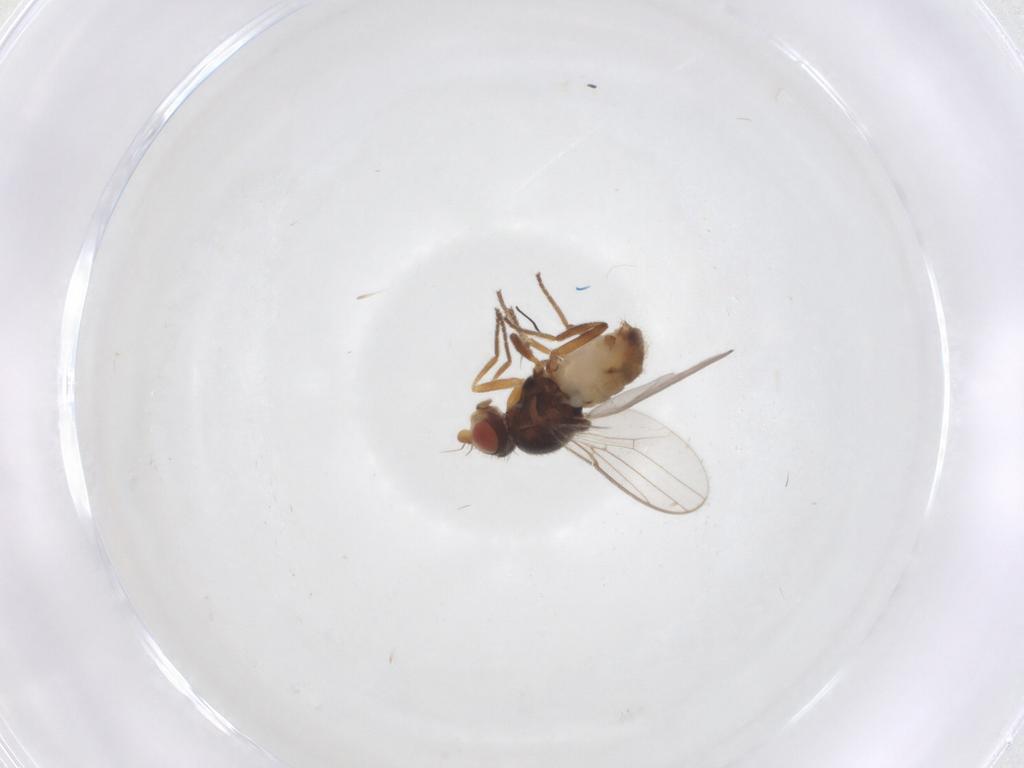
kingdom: Animalia
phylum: Arthropoda
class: Insecta
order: Diptera
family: Chloropidae
